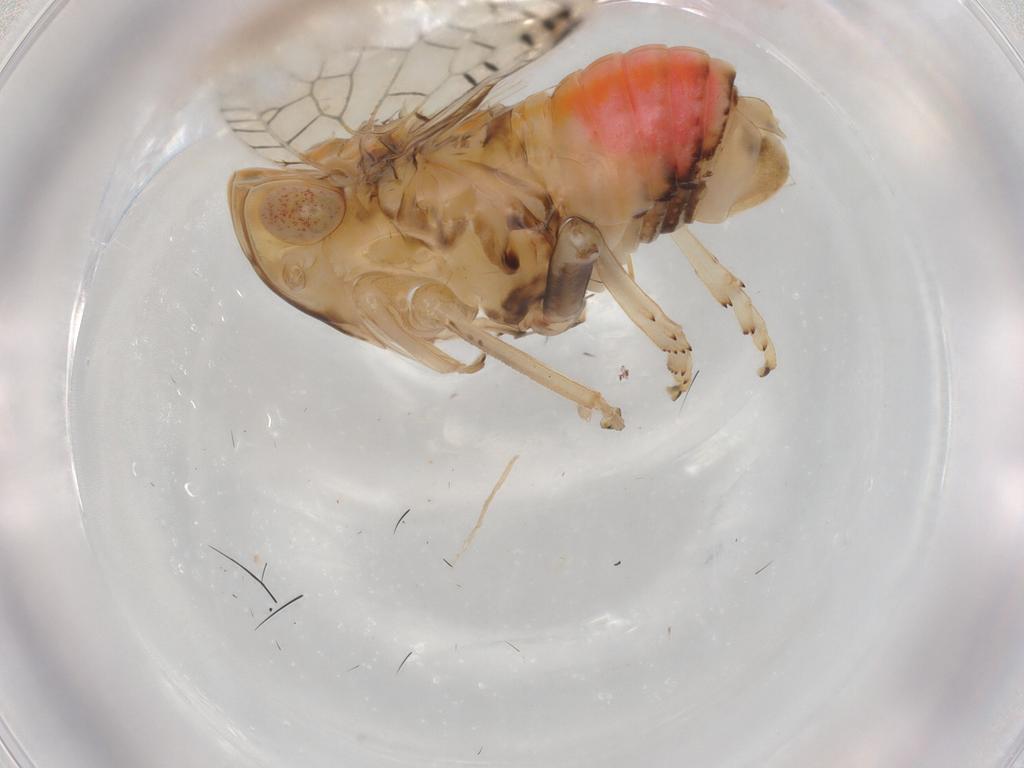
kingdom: Animalia
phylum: Arthropoda
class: Insecta
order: Hemiptera
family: Tropiduchidae
